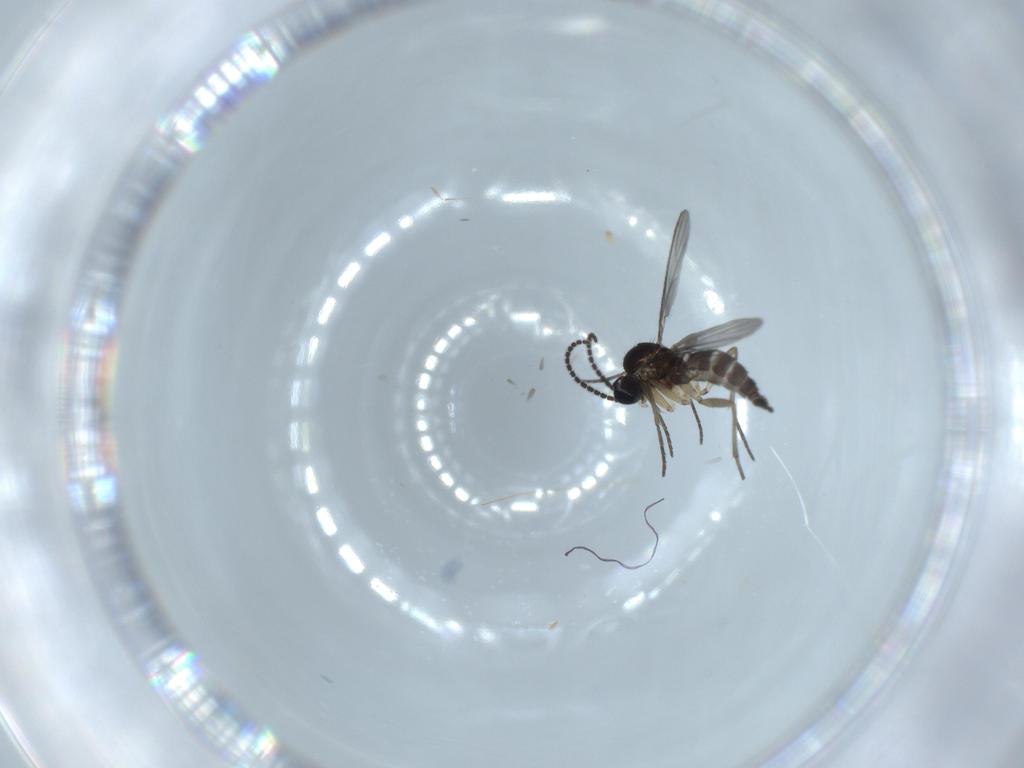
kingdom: Animalia
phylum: Arthropoda
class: Insecta
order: Diptera
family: Sciaridae
